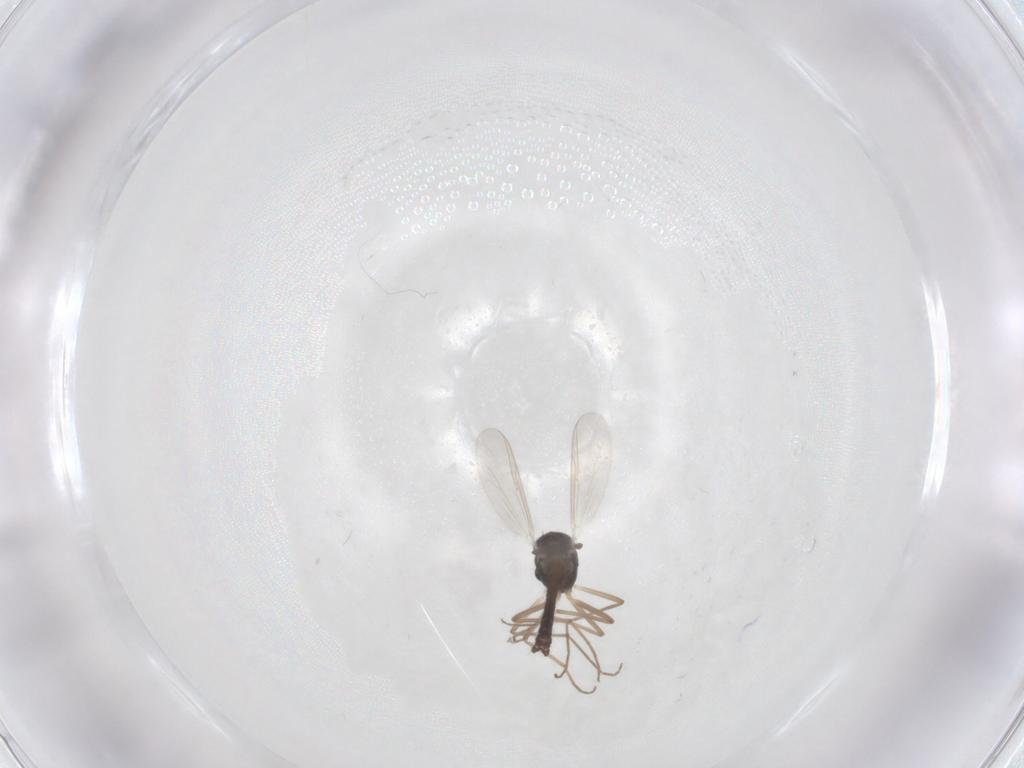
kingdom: Animalia
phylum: Arthropoda
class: Insecta
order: Diptera
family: Chironomidae
